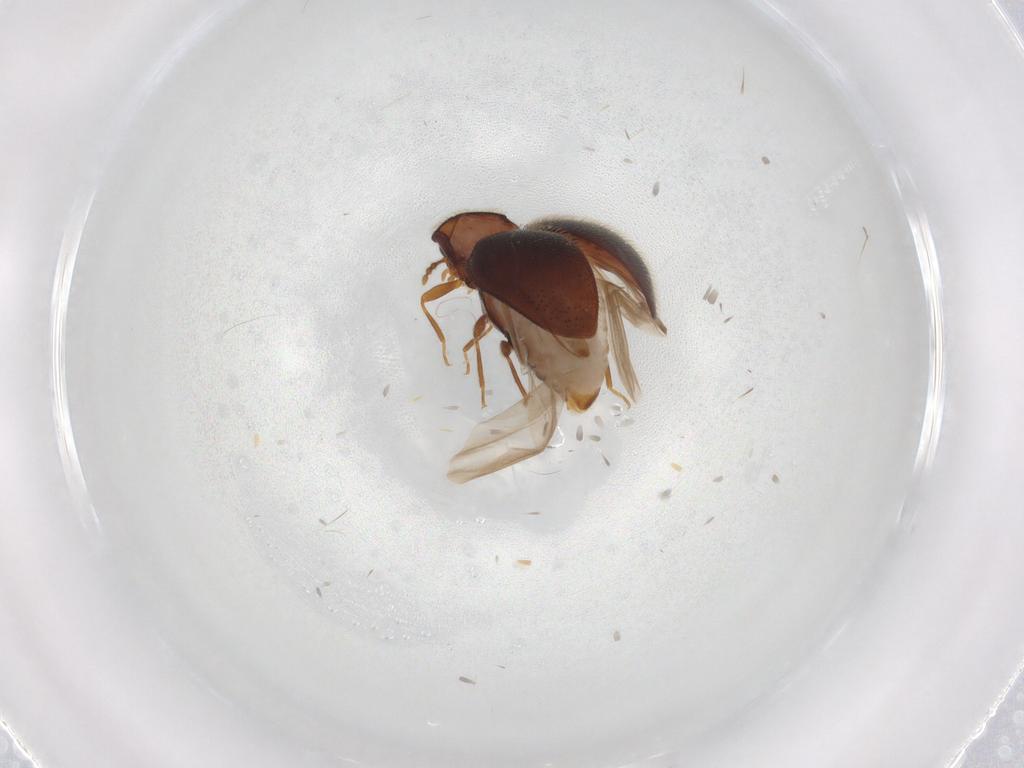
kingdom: Animalia
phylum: Arthropoda
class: Insecta
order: Coleoptera
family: Anamorphidae
